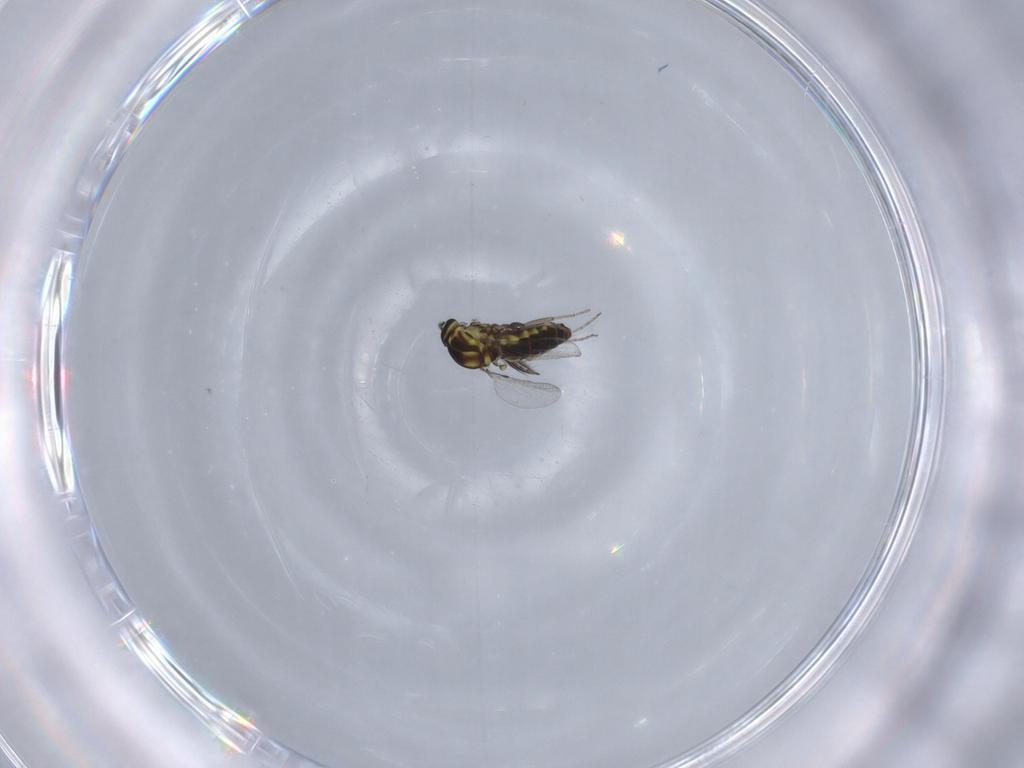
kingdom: Animalia
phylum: Arthropoda
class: Insecta
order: Diptera
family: Ceratopogonidae
